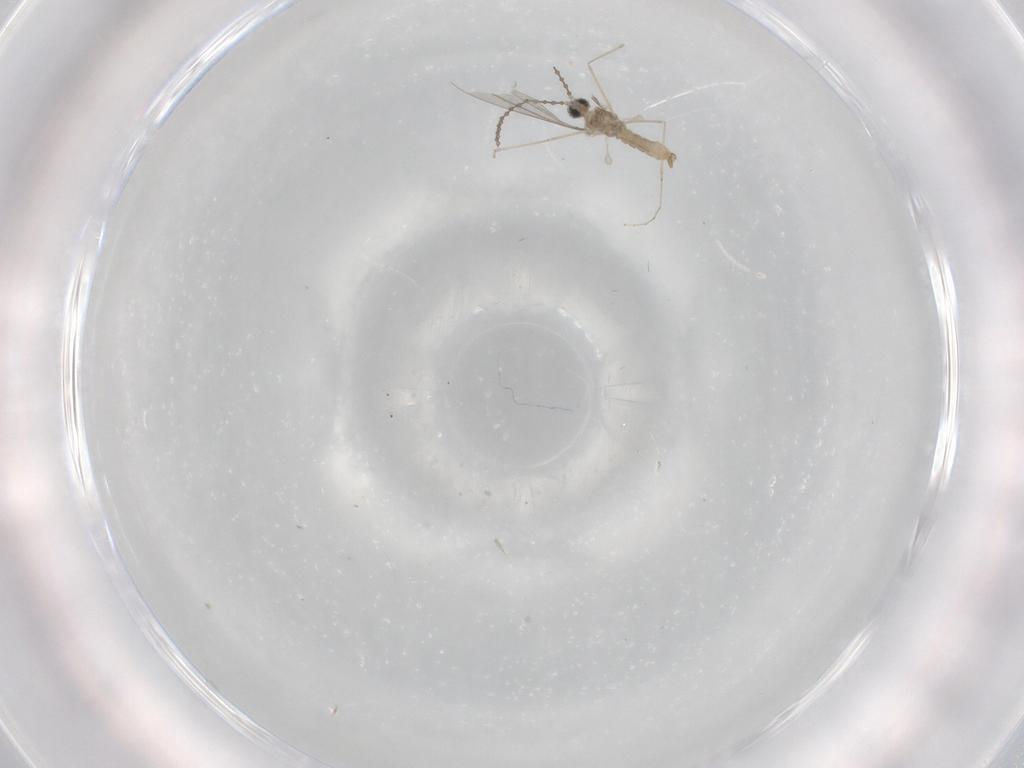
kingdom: Animalia
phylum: Arthropoda
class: Insecta
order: Diptera
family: Cecidomyiidae
